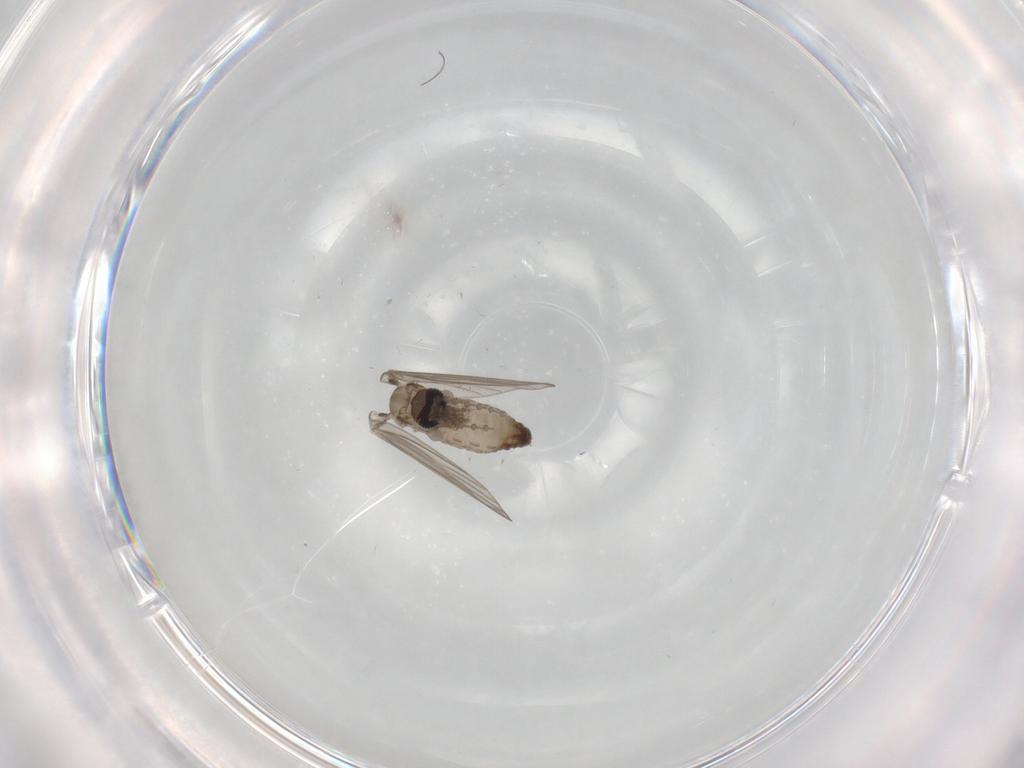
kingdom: Animalia
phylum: Arthropoda
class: Insecta
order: Diptera
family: Psychodidae
